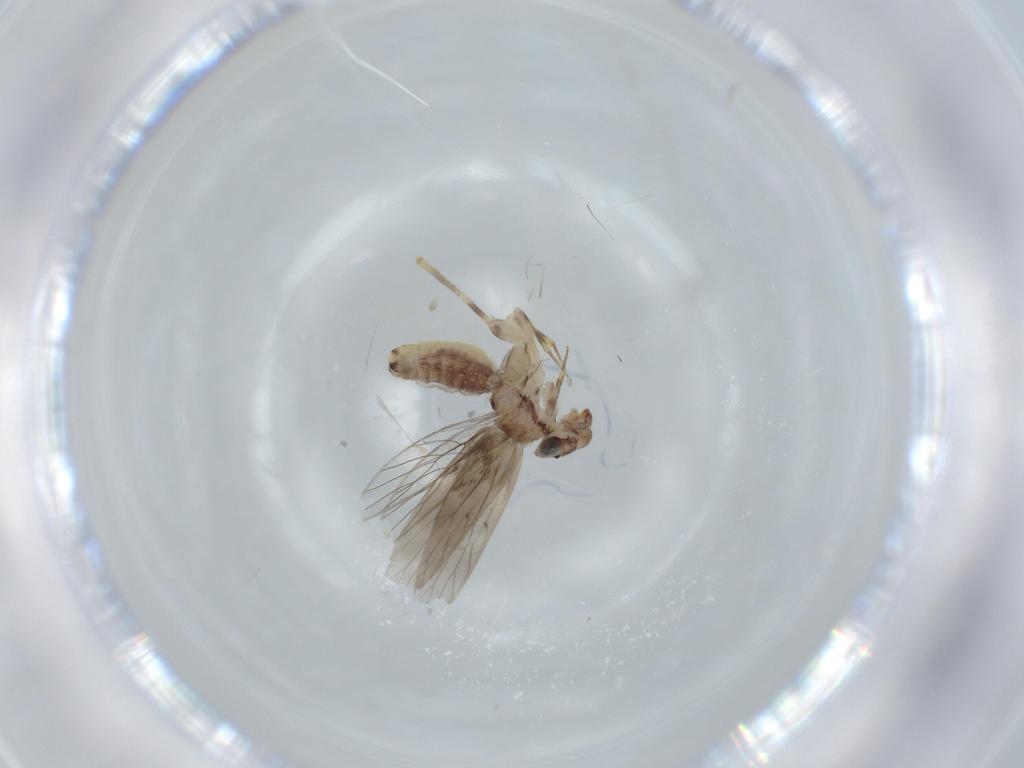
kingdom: Animalia
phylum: Arthropoda
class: Insecta
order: Psocodea
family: Lepidopsocidae
